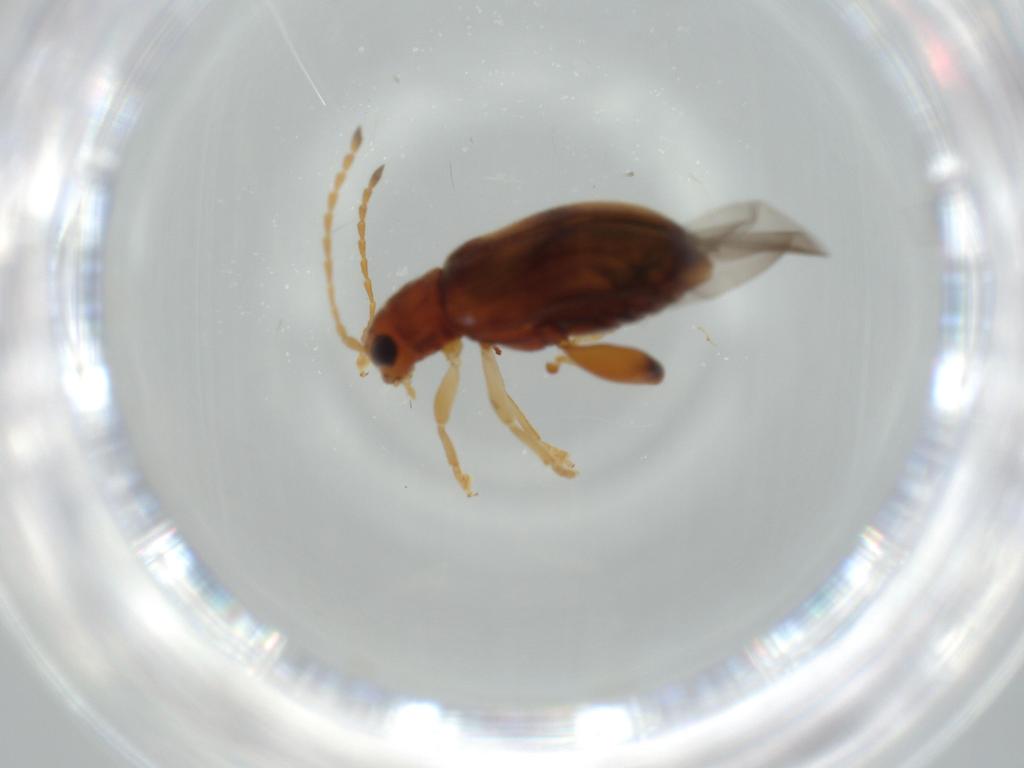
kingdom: Animalia
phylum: Arthropoda
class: Insecta
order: Coleoptera
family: Chrysomelidae
